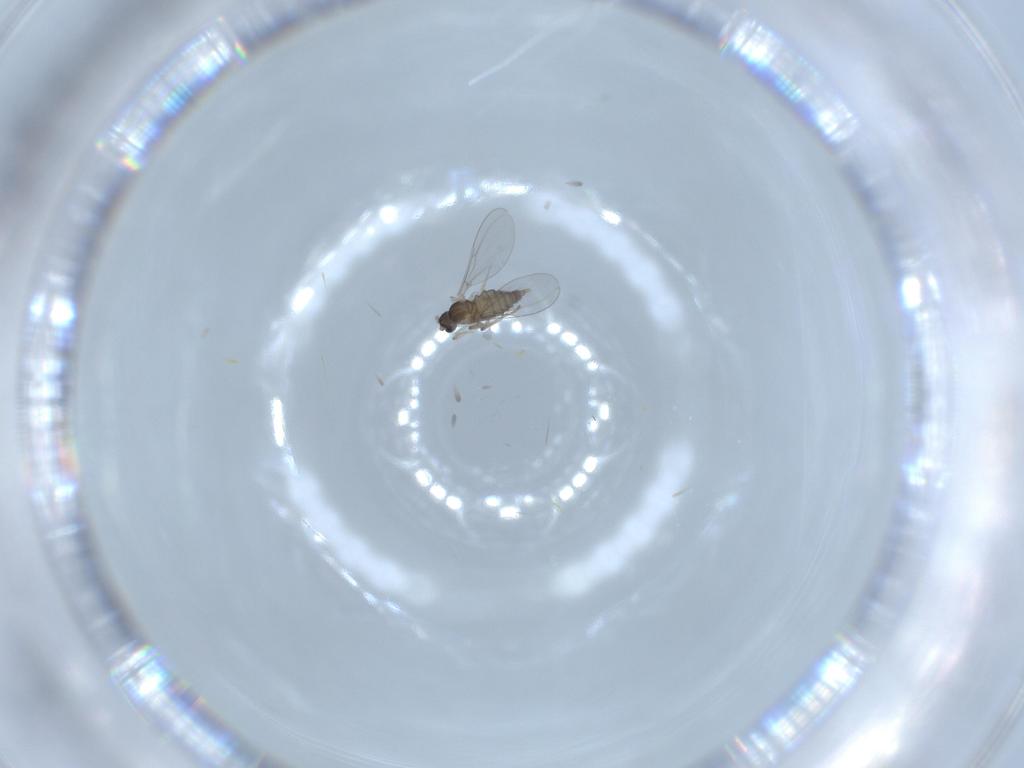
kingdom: Animalia
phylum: Arthropoda
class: Insecta
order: Diptera
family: Cecidomyiidae
